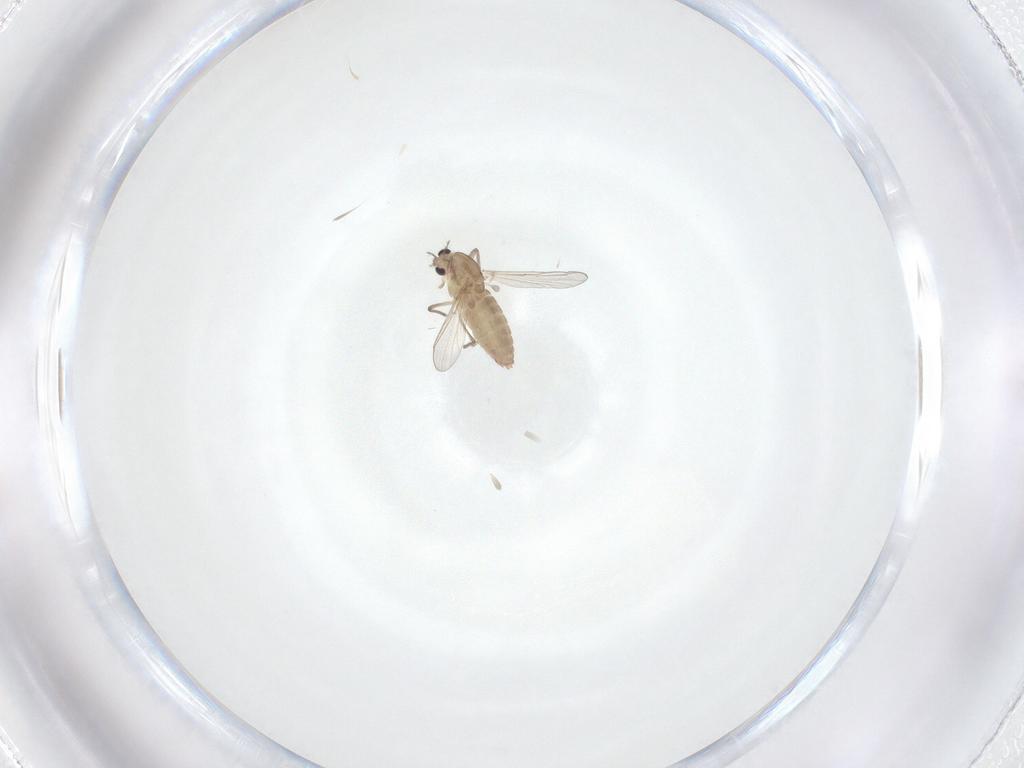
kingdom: Animalia
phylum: Arthropoda
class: Insecta
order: Diptera
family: Chironomidae
